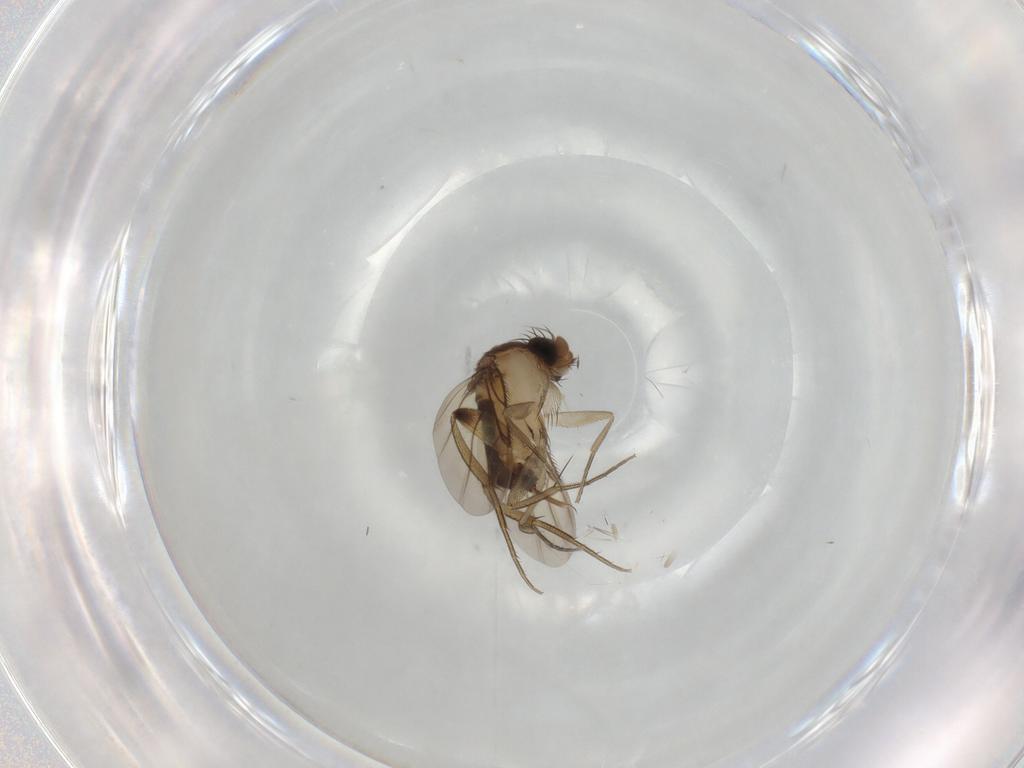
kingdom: Animalia
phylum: Arthropoda
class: Insecta
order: Diptera
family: Phoridae
